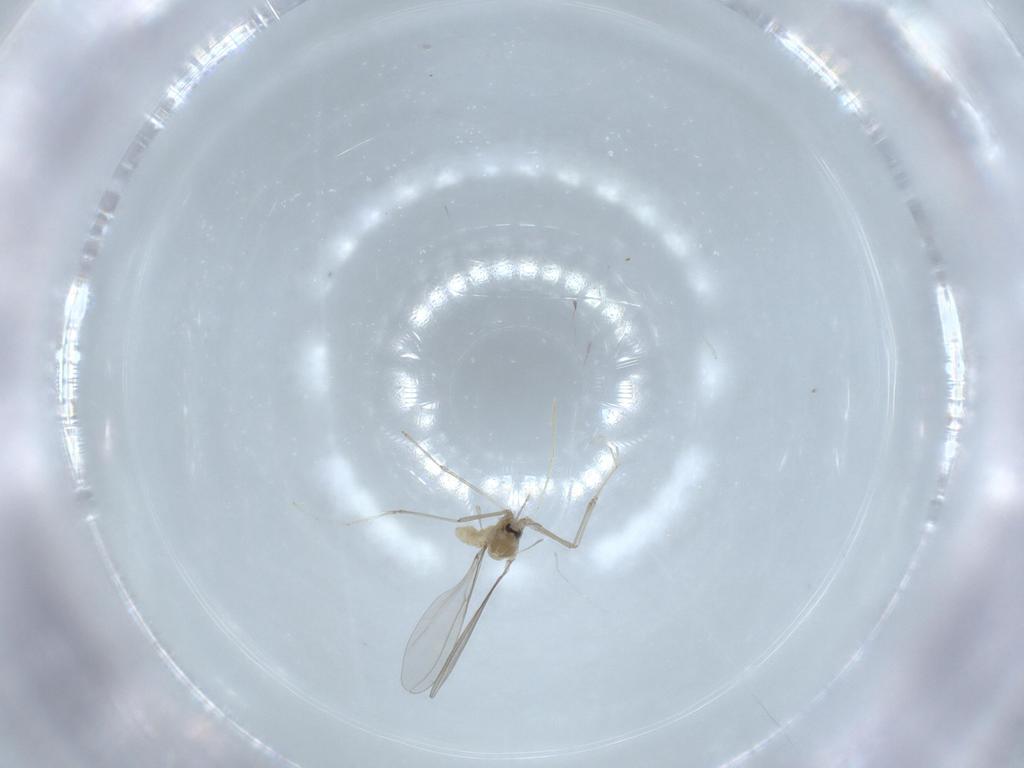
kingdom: Animalia
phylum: Arthropoda
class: Insecta
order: Diptera
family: Cecidomyiidae
